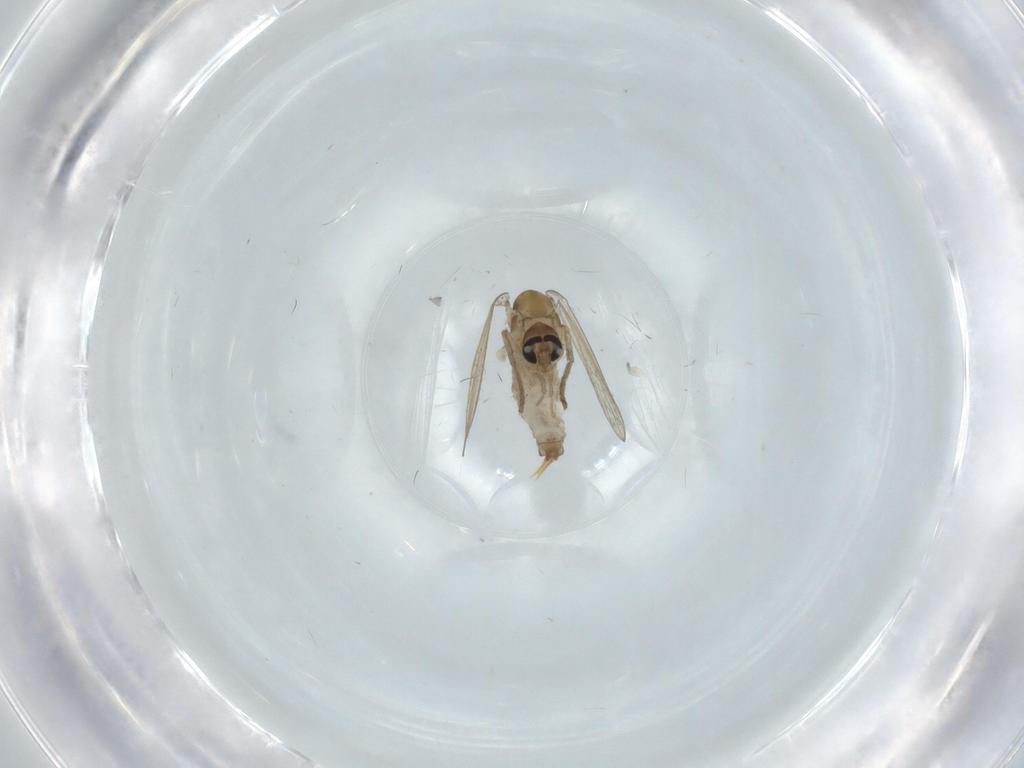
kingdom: Animalia
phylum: Arthropoda
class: Insecta
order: Diptera
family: Psychodidae
